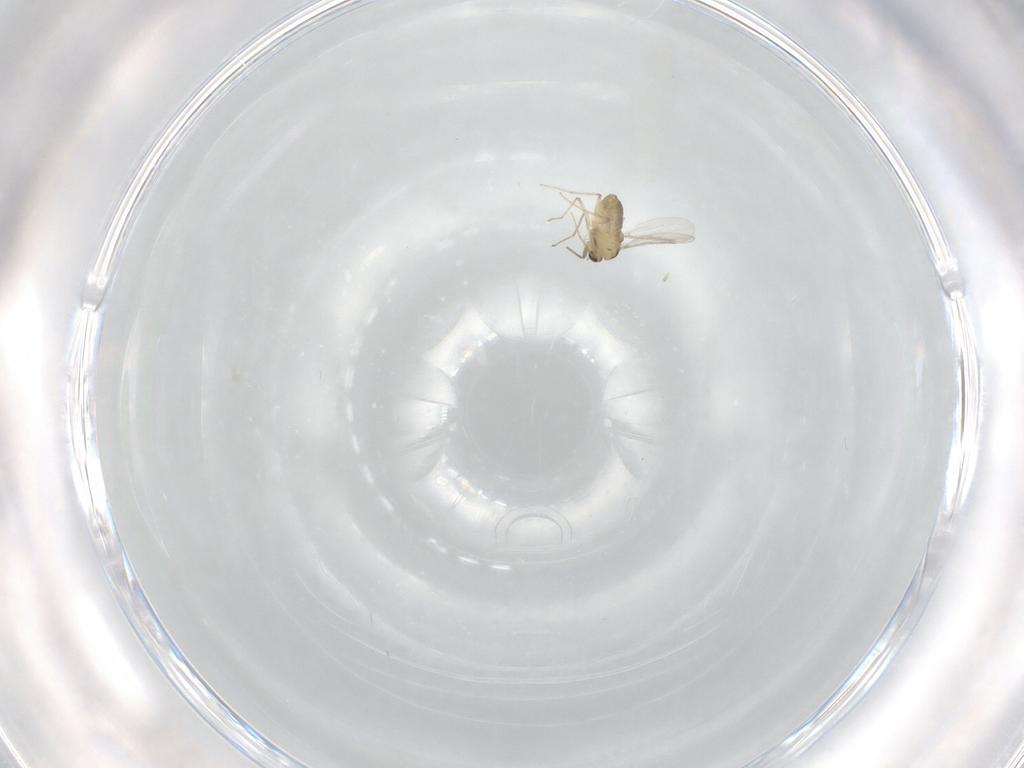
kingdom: Animalia
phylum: Arthropoda
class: Insecta
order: Diptera
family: Chironomidae
